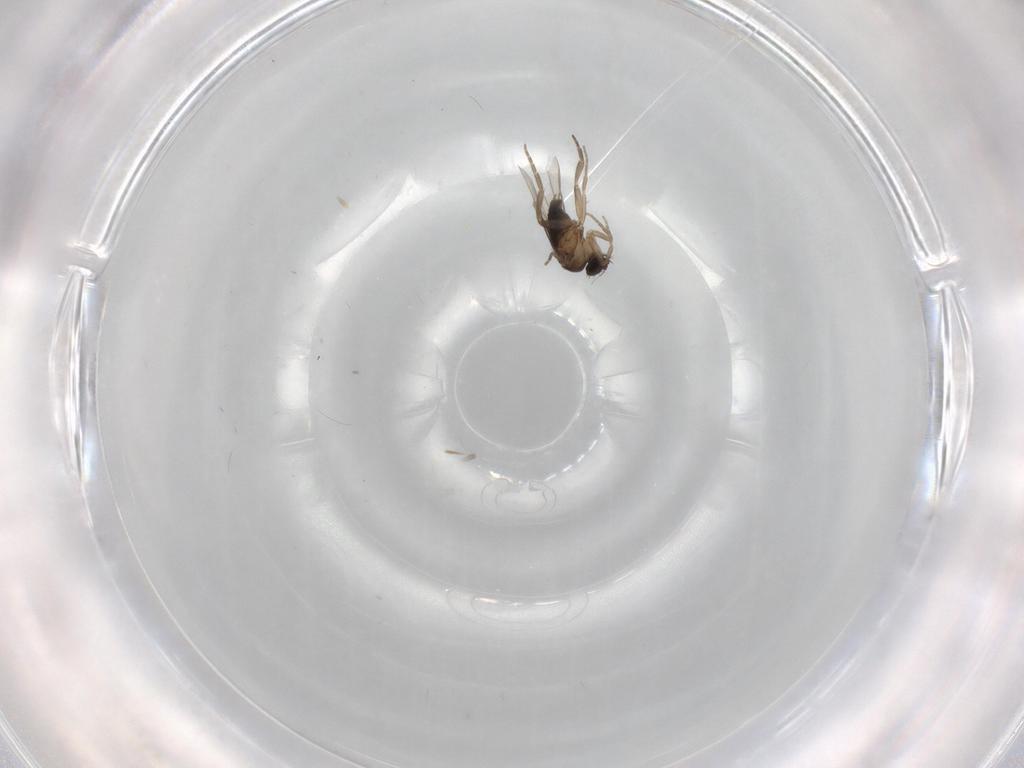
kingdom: Animalia
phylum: Arthropoda
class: Insecta
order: Diptera
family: Phoridae
